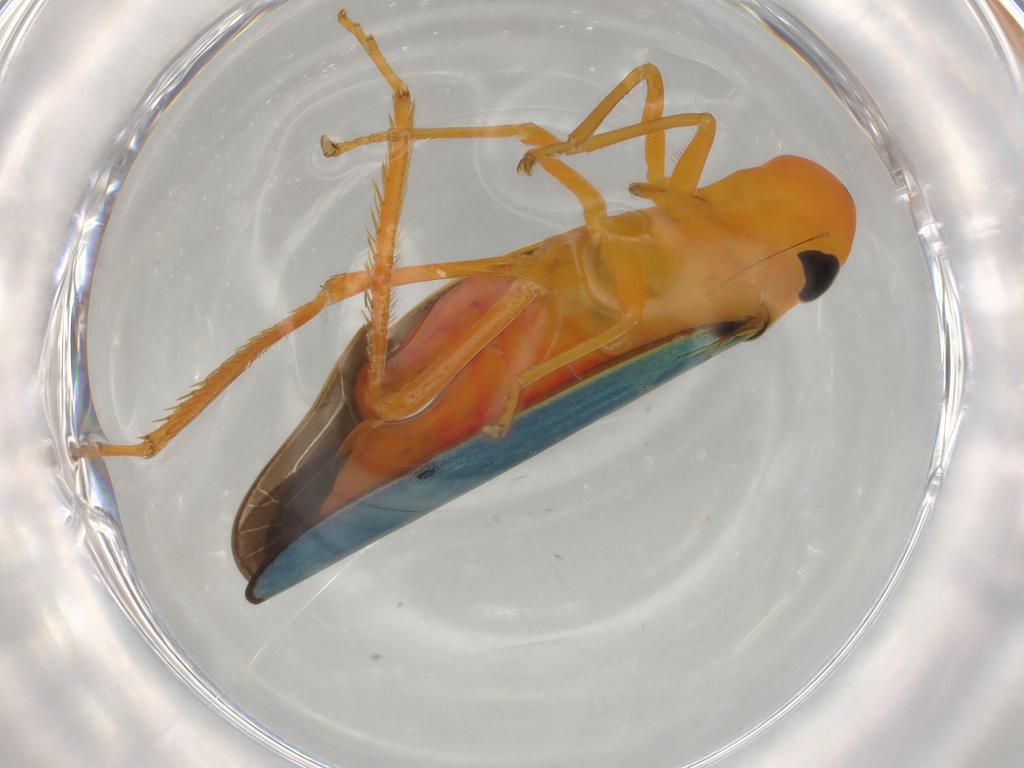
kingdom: Animalia
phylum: Arthropoda
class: Insecta
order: Hemiptera
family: Cicadellidae
